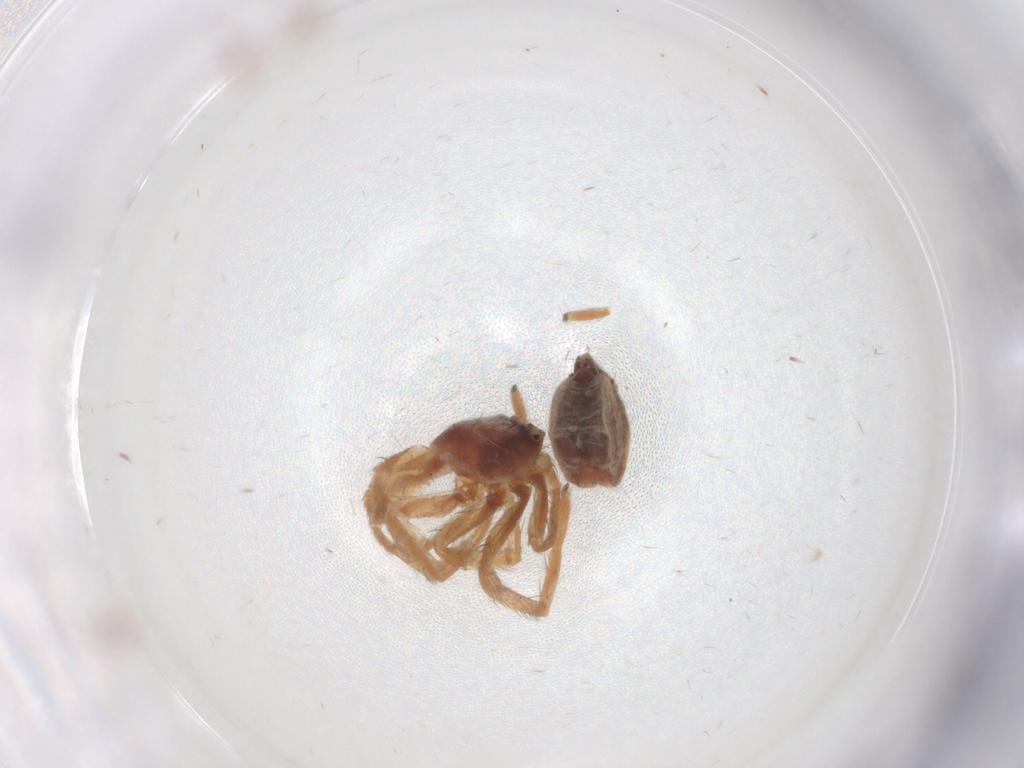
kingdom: Animalia
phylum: Arthropoda
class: Arachnida
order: Araneae
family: Philodromidae
